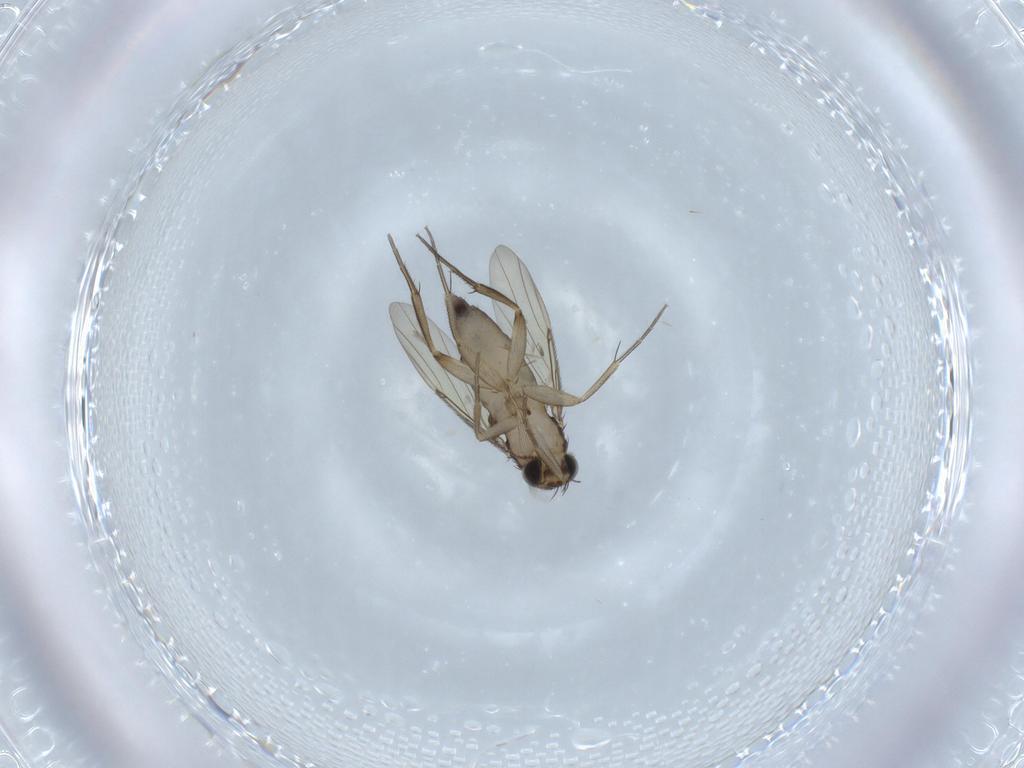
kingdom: Animalia
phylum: Arthropoda
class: Insecta
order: Diptera
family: Phoridae
